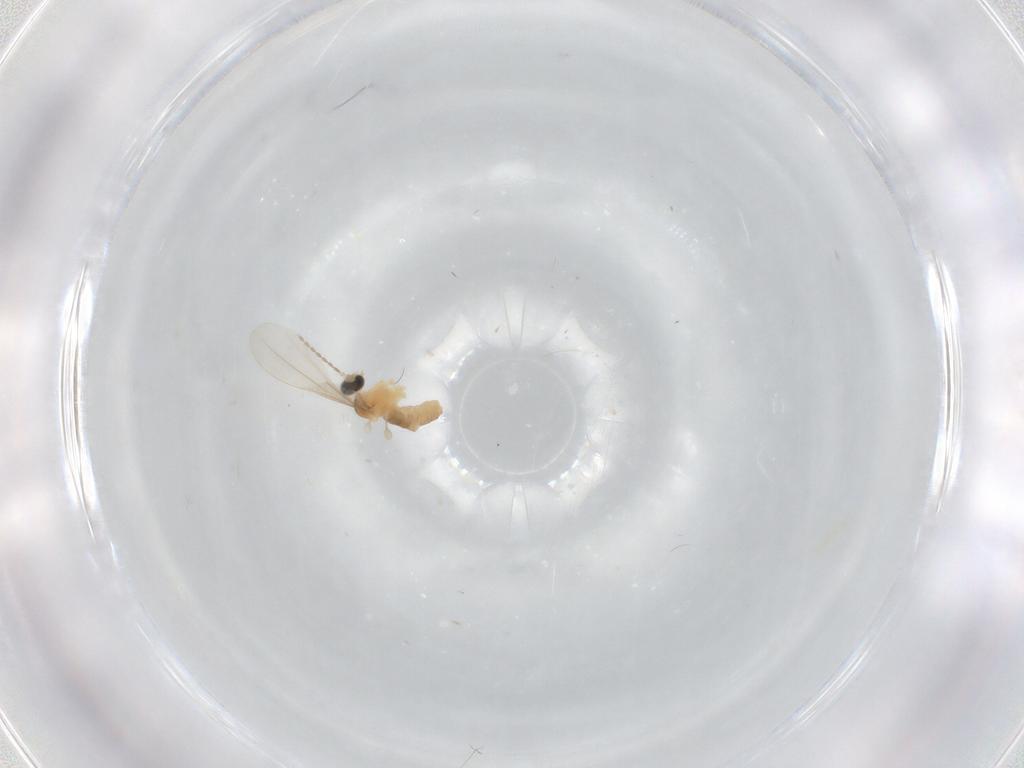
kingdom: Animalia
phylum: Arthropoda
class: Insecta
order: Diptera
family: Cecidomyiidae
